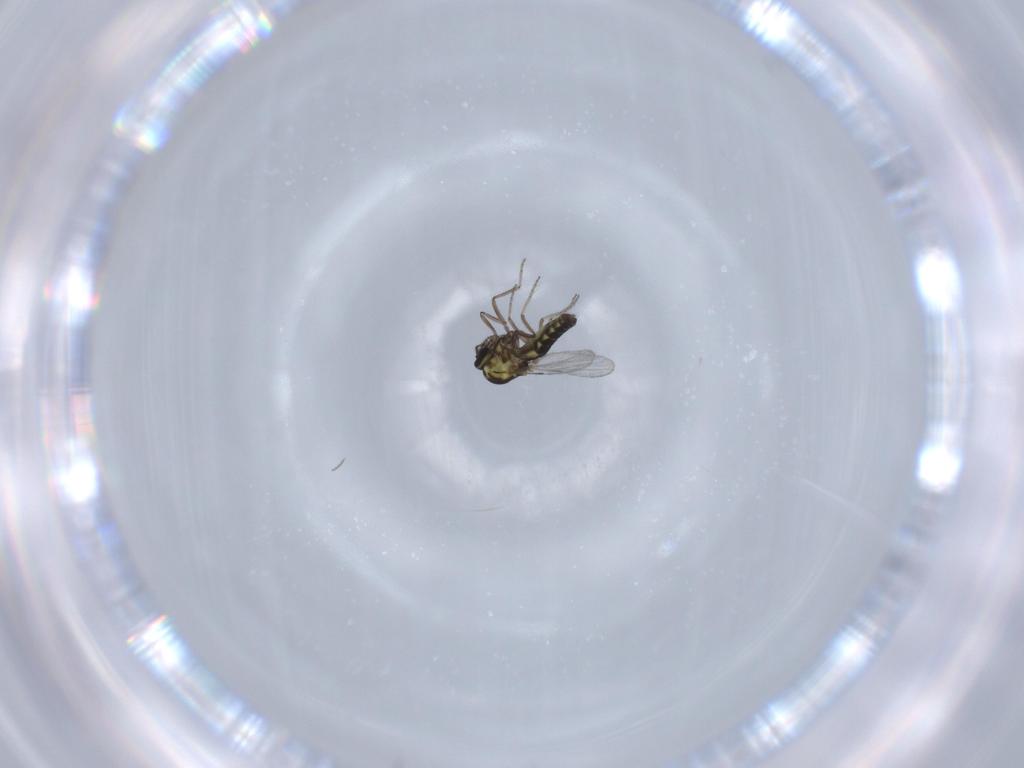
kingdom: Animalia
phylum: Arthropoda
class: Insecta
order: Diptera
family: Ceratopogonidae
